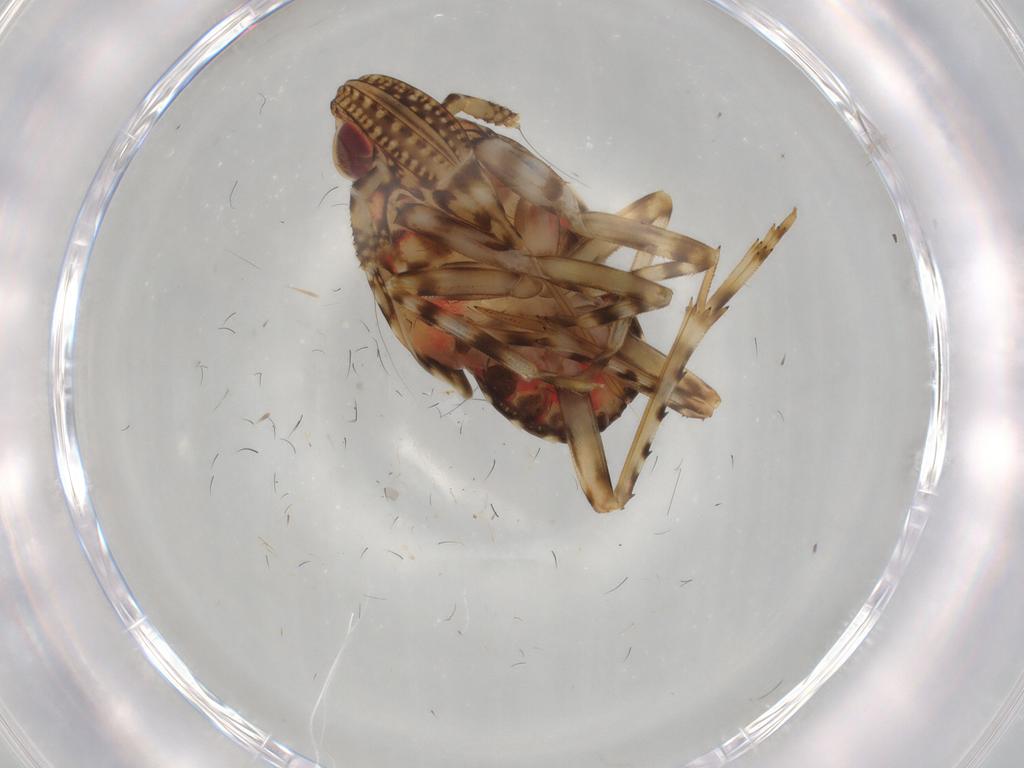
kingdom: Animalia
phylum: Arthropoda
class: Insecta
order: Hemiptera
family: Delphacidae
